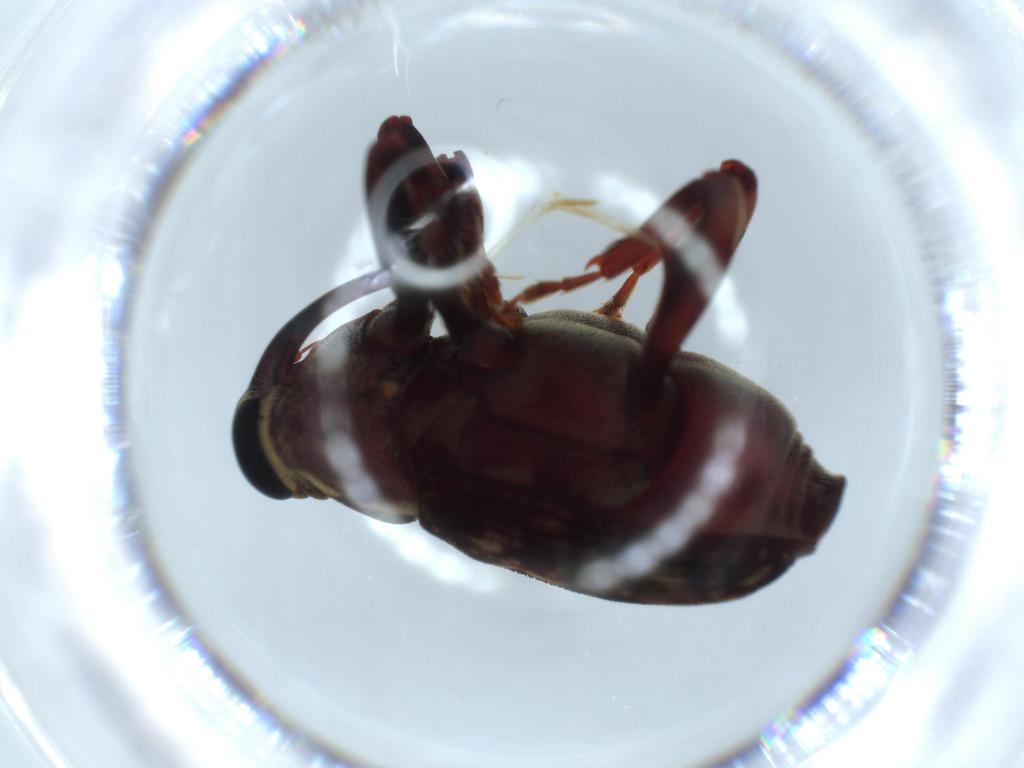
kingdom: Animalia
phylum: Arthropoda
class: Insecta
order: Coleoptera
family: Curculionidae
